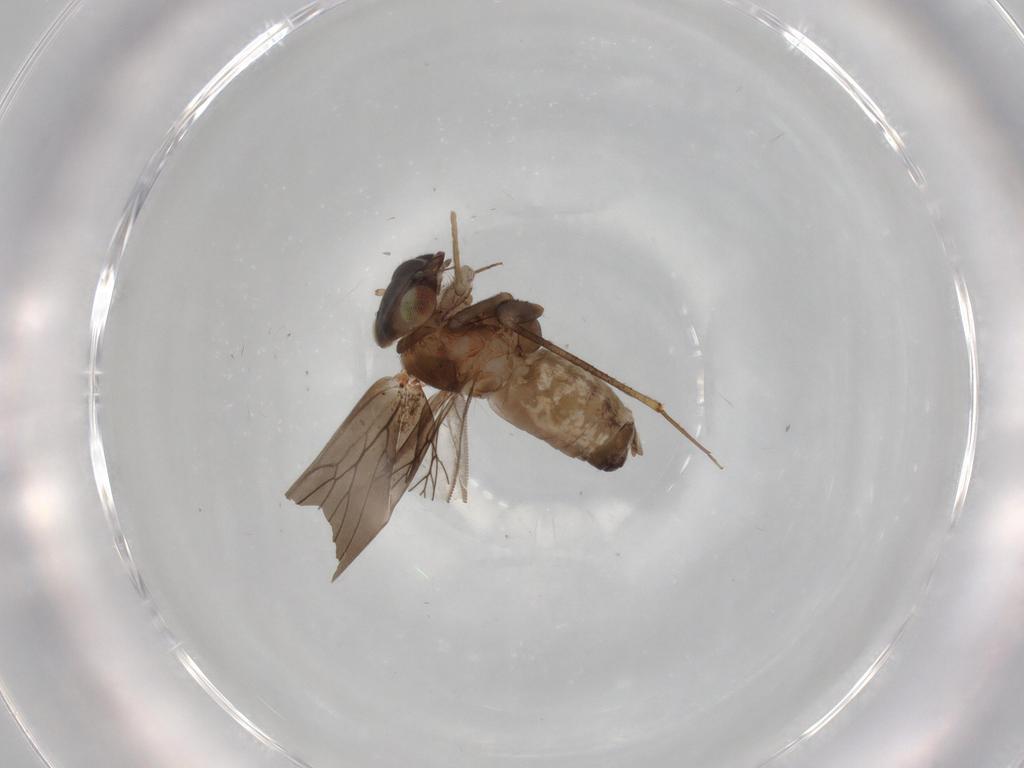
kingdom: Animalia
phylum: Arthropoda
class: Insecta
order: Psocodea
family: Lepidopsocidae
